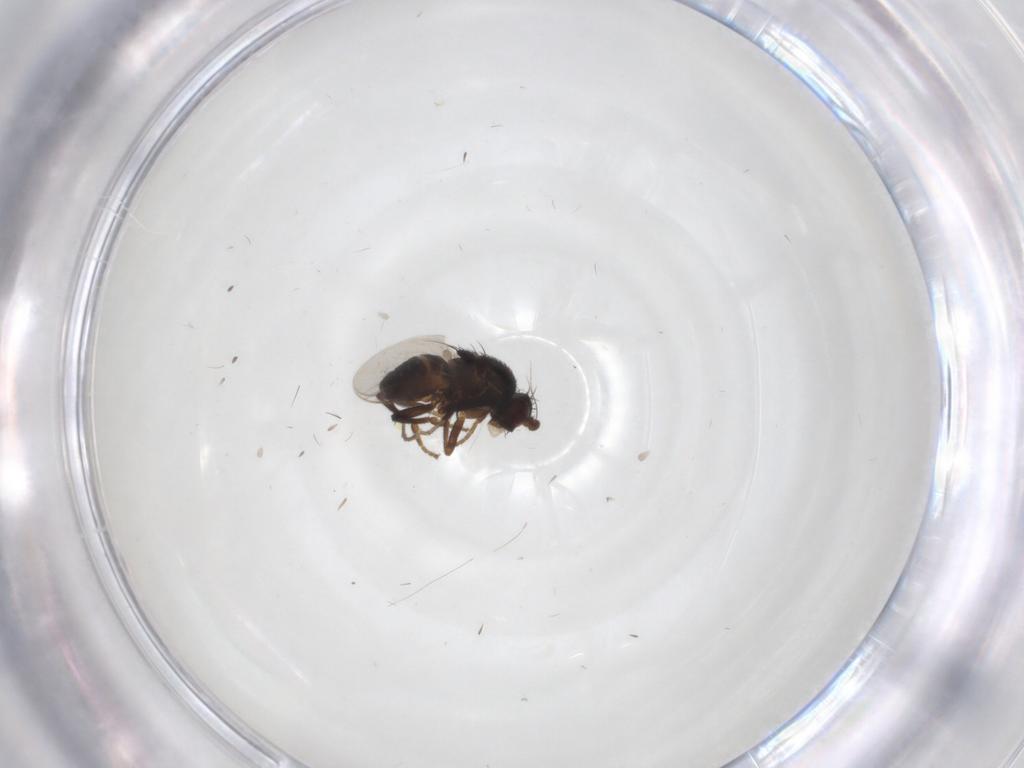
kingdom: Animalia
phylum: Arthropoda
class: Insecta
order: Diptera
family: Sphaeroceridae
